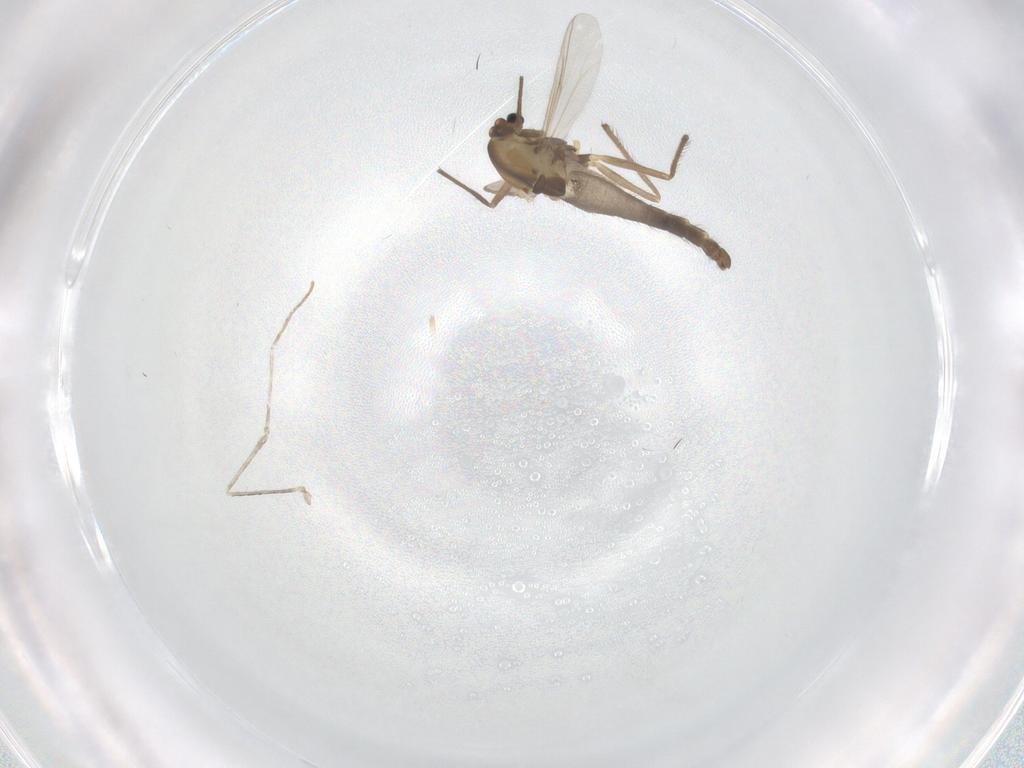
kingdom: Animalia
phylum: Arthropoda
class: Insecta
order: Diptera
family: Chironomidae
